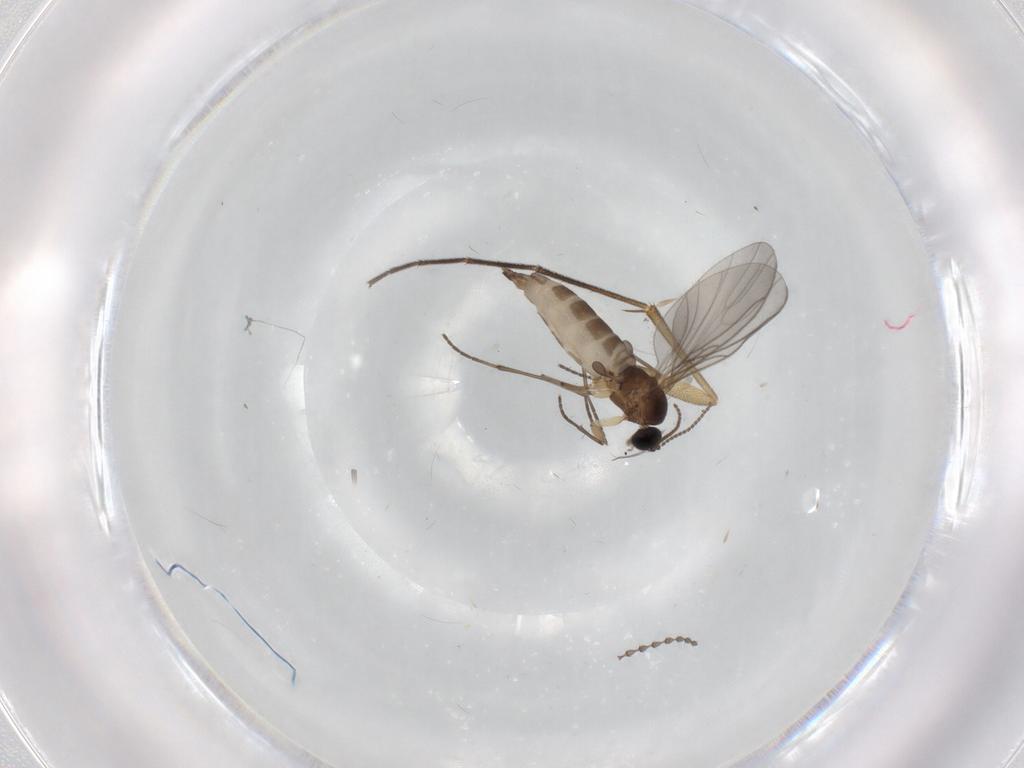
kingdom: Animalia
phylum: Arthropoda
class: Insecta
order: Diptera
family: Sciaridae
